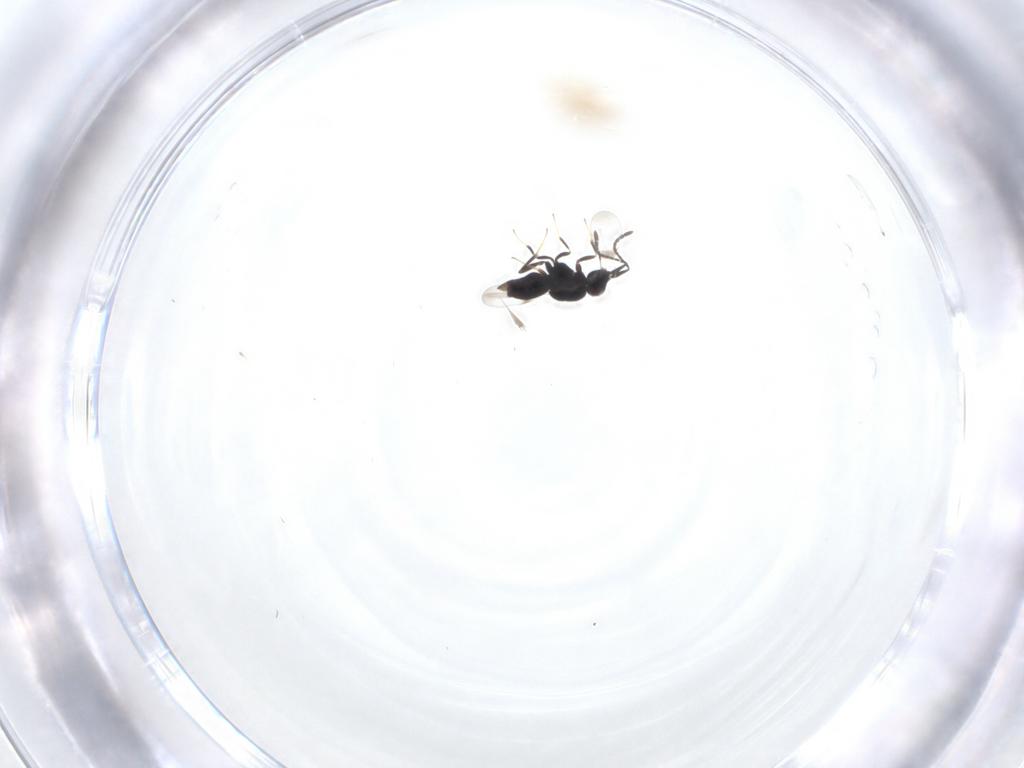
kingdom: Animalia
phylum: Arthropoda
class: Insecta
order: Hymenoptera
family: Ceraphronidae
